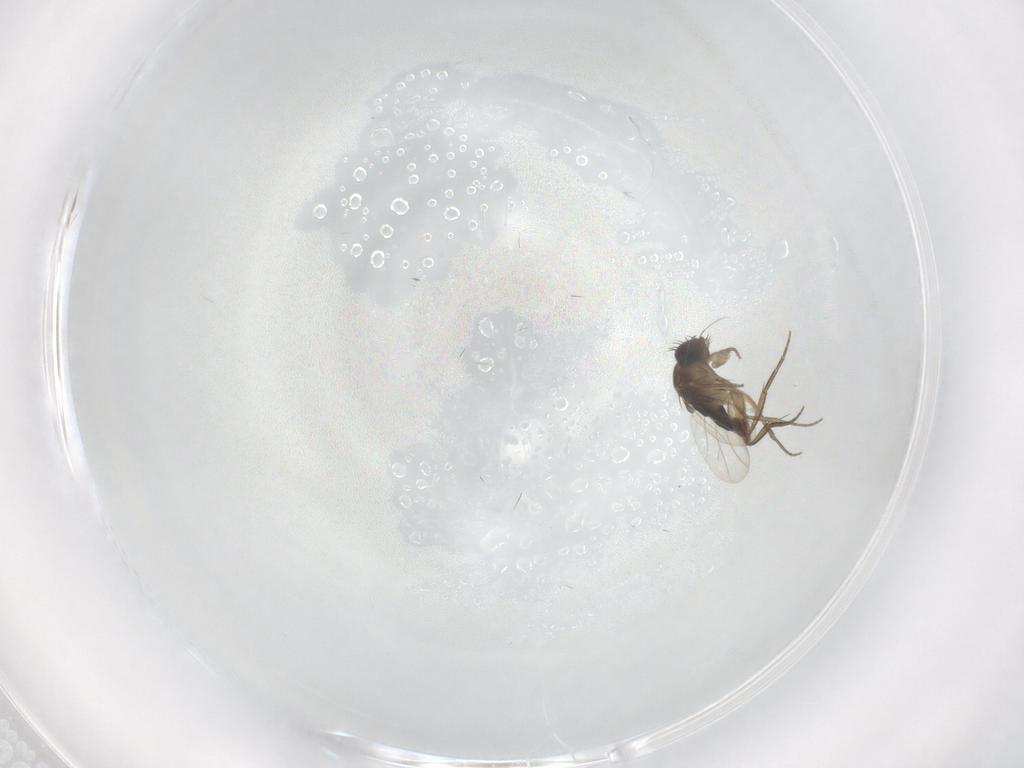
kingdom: Animalia
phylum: Arthropoda
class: Insecta
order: Diptera
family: Phoridae
